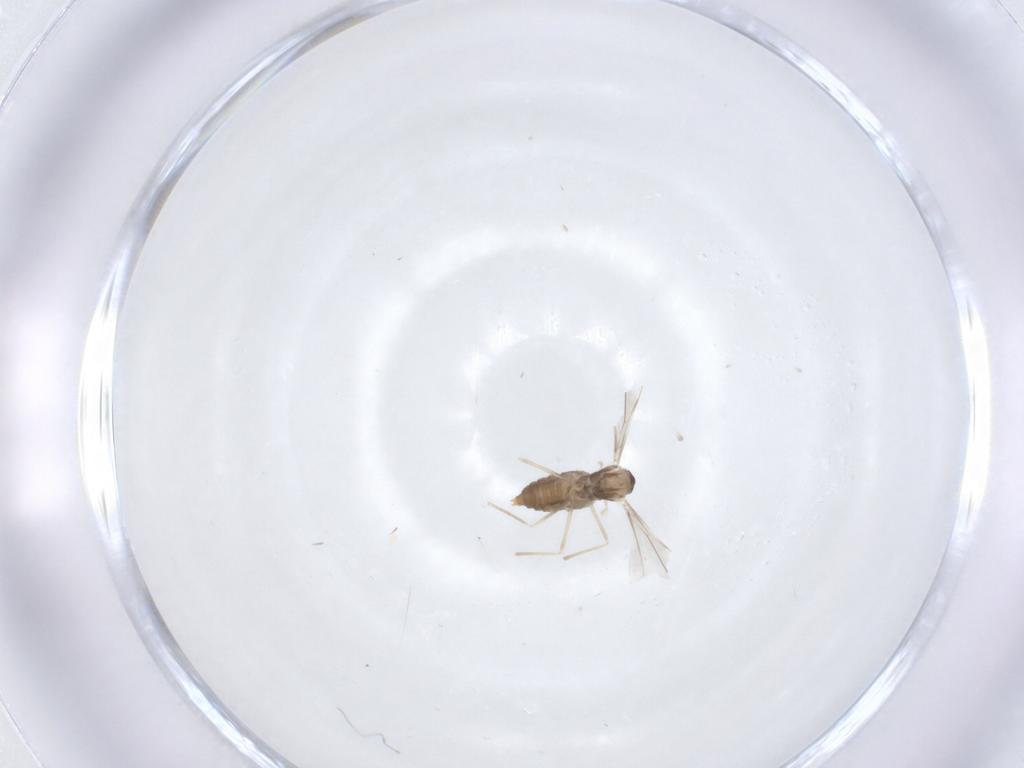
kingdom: Animalia
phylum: Arthropoda
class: Insecta
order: Diptera
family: Cecidomyiidae
